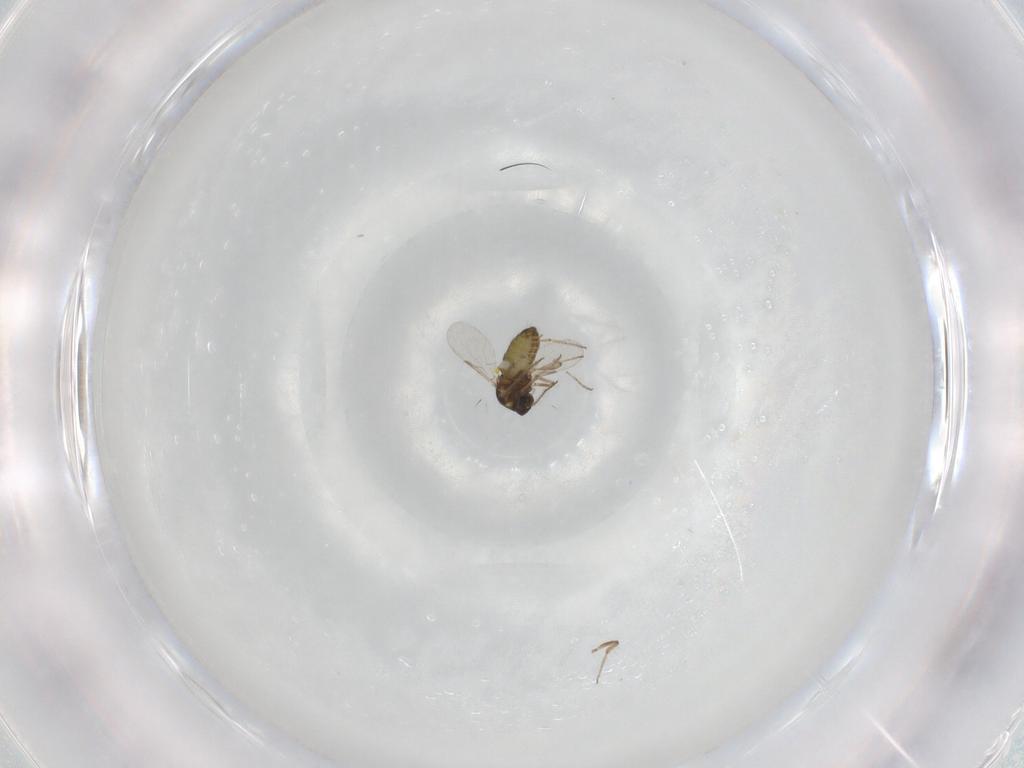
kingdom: Animalia
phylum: Arthropoda
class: Insecta
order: Diptera
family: Ceratopogonidae
